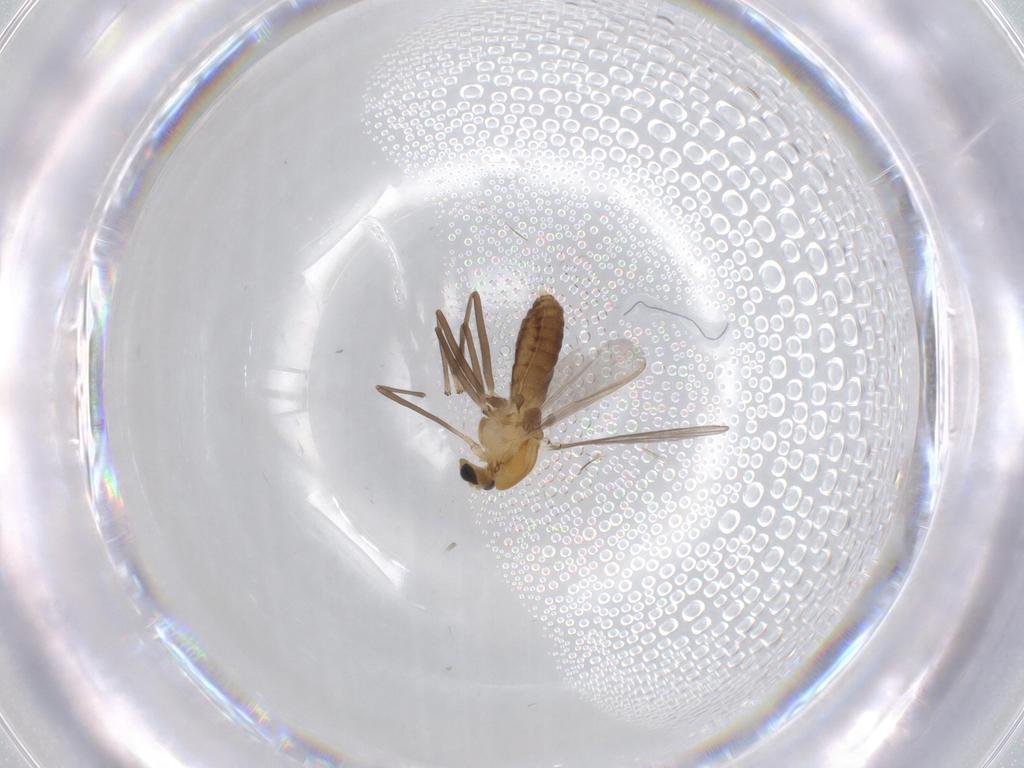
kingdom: Animalia
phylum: Arthropoda
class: Insecta
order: Diptera
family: Chironomidae
